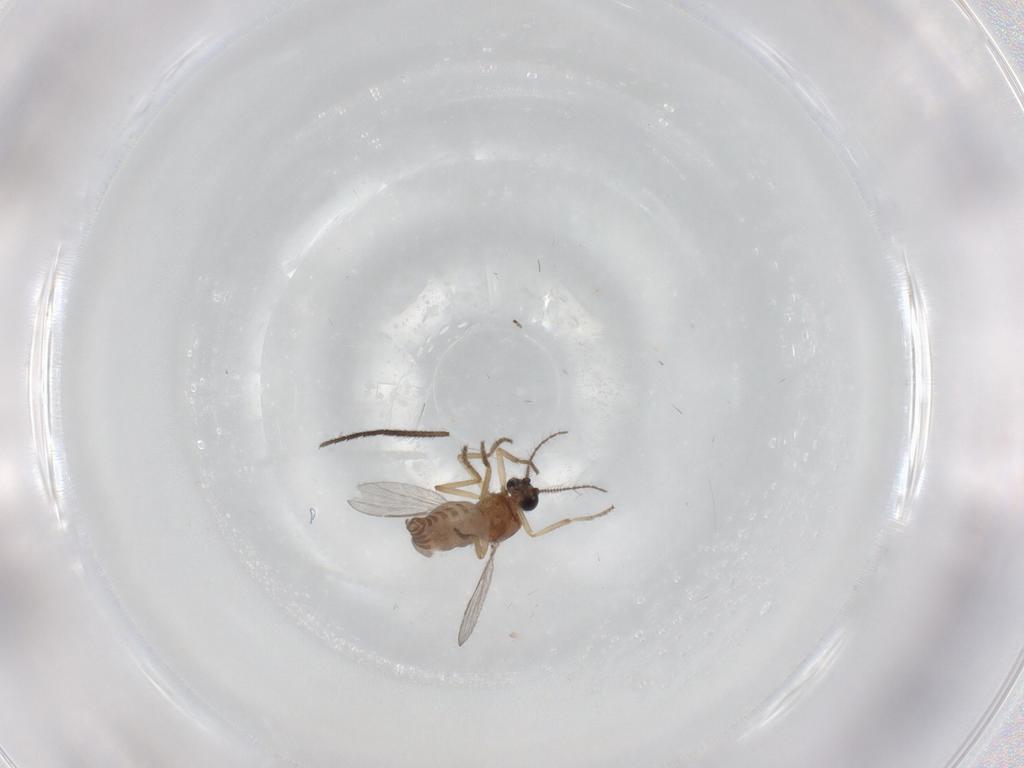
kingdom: Animalia
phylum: Arthropoda
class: Insecta
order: Diptera
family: Ceratopogonidae
